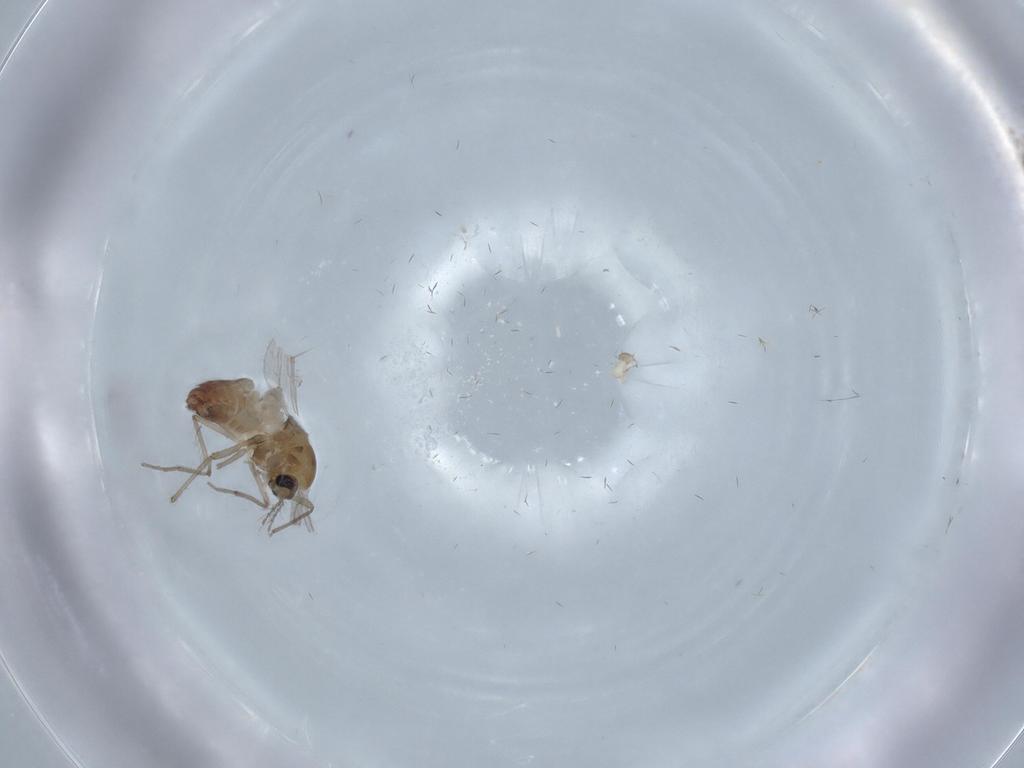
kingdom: Animalia
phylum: Arthropoda
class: Insecta
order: Diptera
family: Chironomidae
